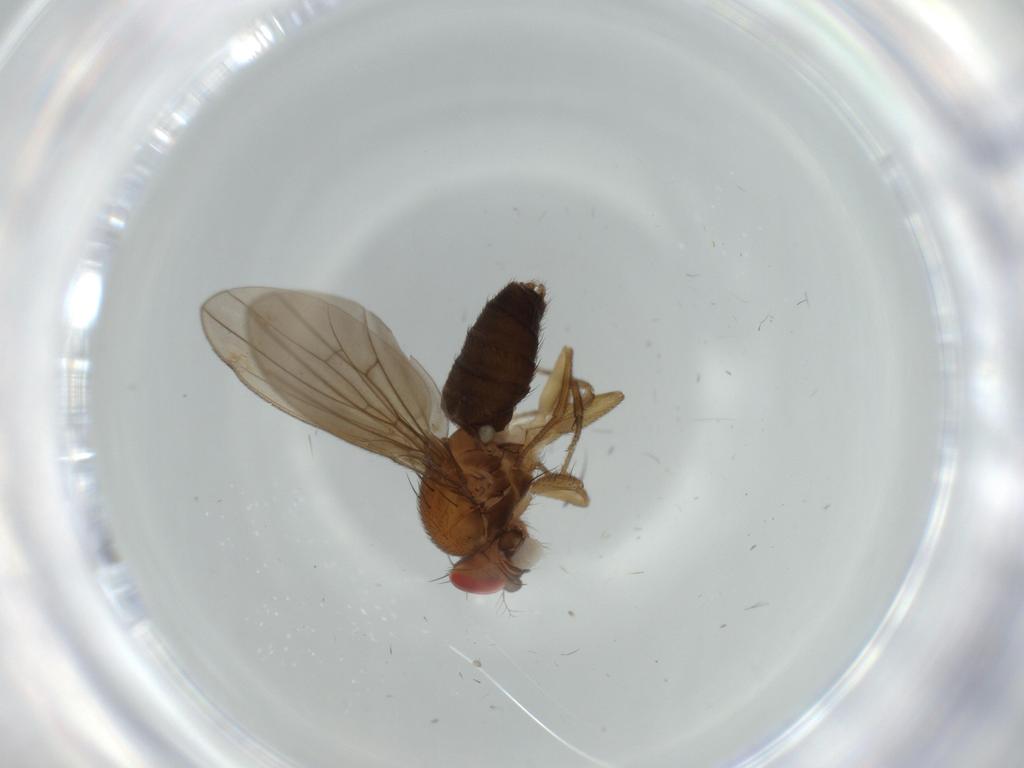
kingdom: Animalia
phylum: Arthropoda
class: Insecta
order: Diptera
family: Drosophilidae
